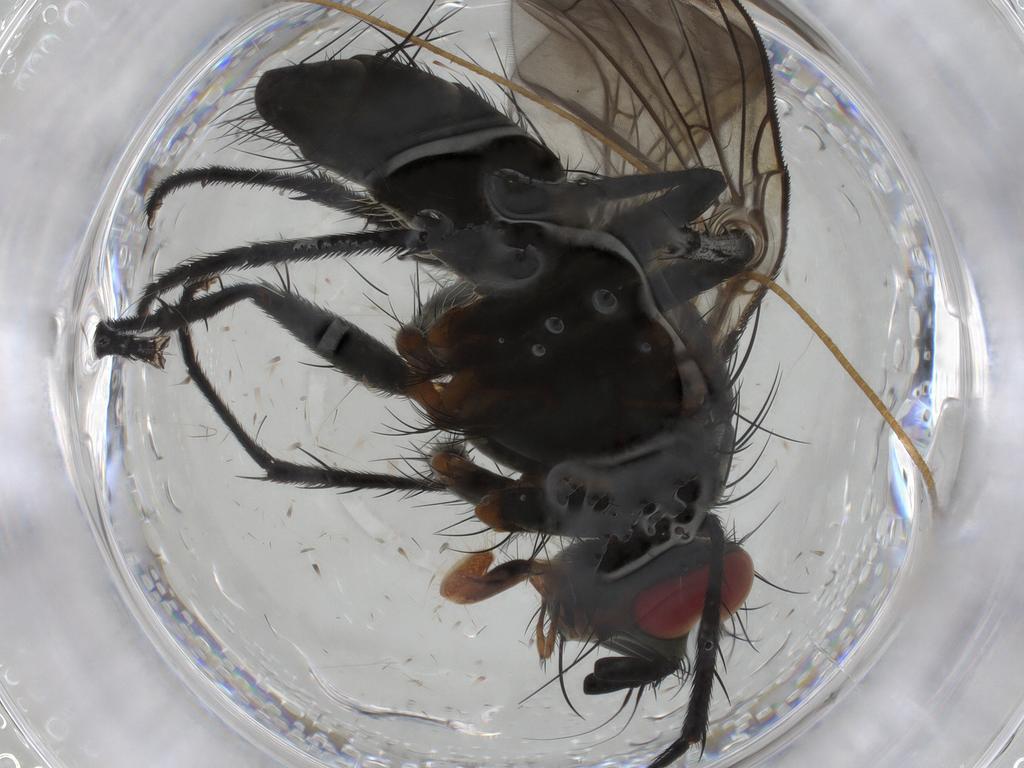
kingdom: Animalia
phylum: Arthropoda
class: Insecta
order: Diptera
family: Tachinidae
